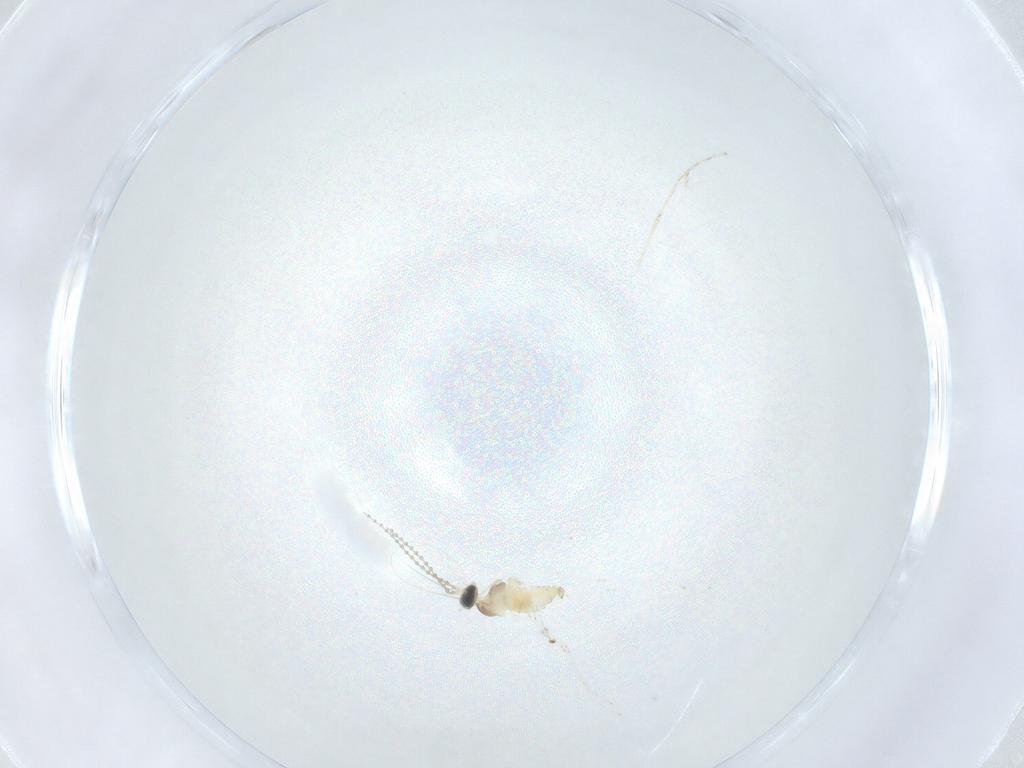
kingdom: Animalia
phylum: Arthropoda
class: Insecta
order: Diptera
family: Cecidomyiidae
